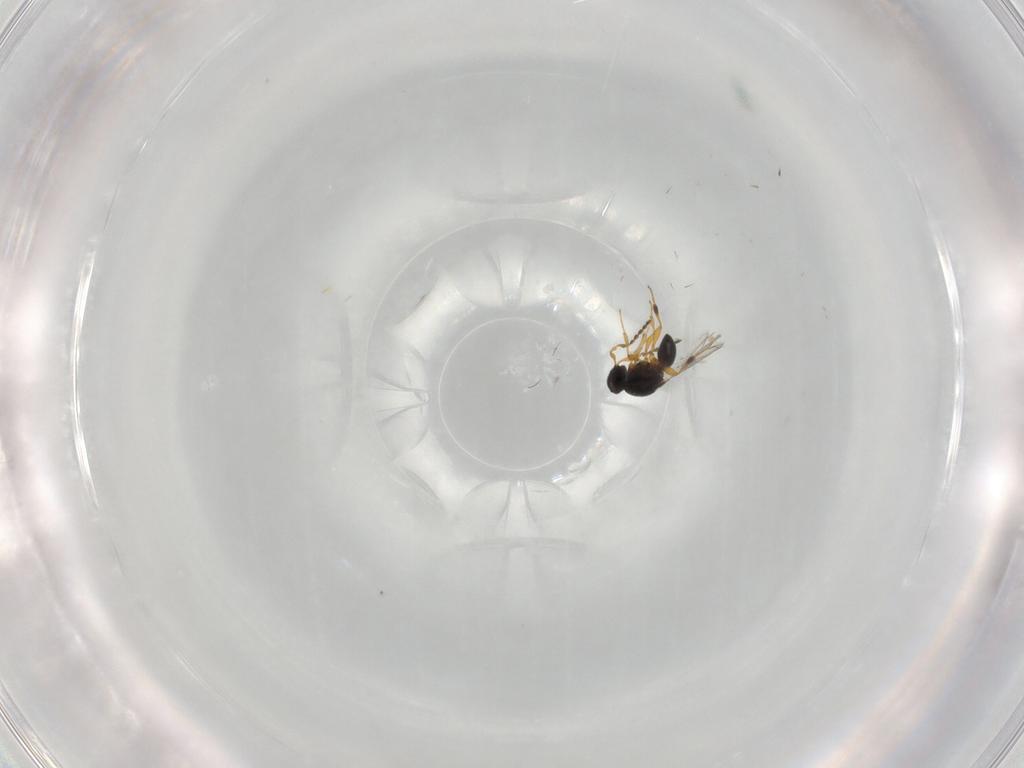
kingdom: Animalia
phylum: Arthropoda
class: Insecta
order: Hymenoptera
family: Platygastridae
